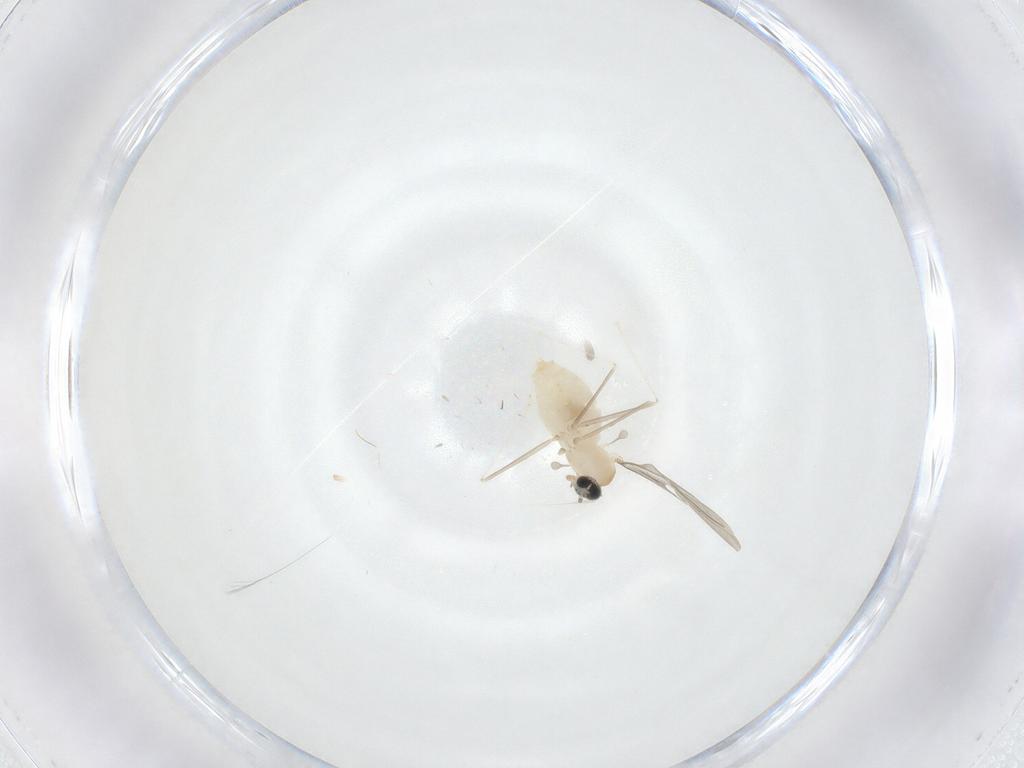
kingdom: Animalia
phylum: Arthropoda
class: Insecta
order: Diptera
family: Cecidomyiidae
